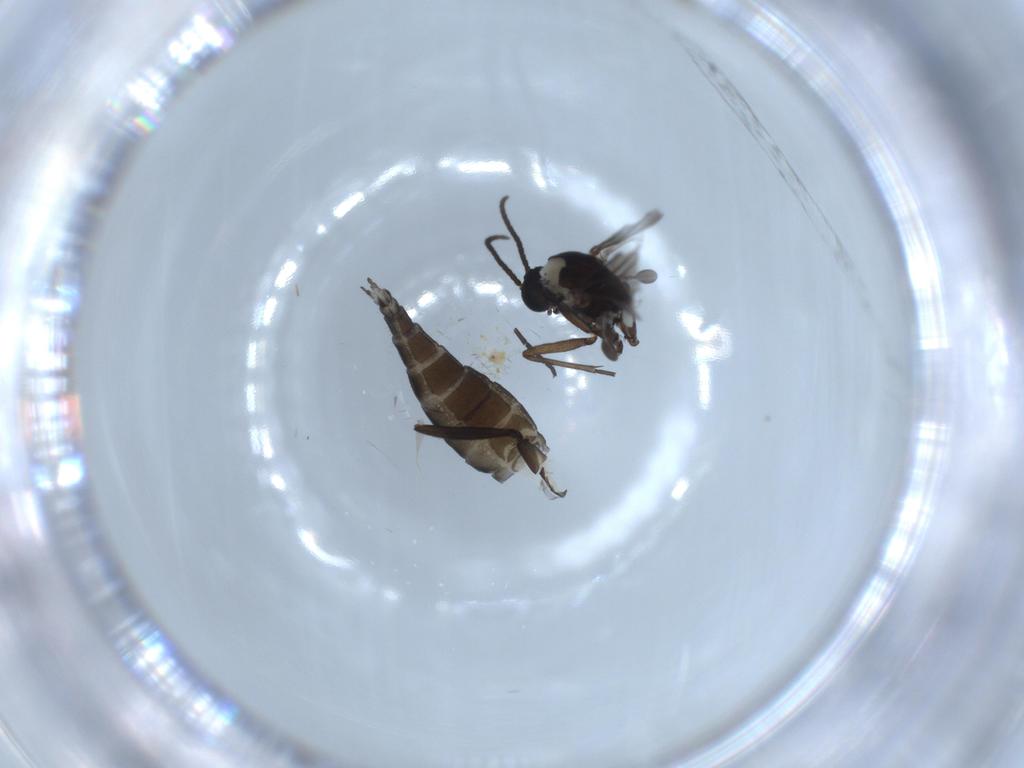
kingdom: Animalia
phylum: Arthropoda
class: Insecta
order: Diptera
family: Sciaridae
